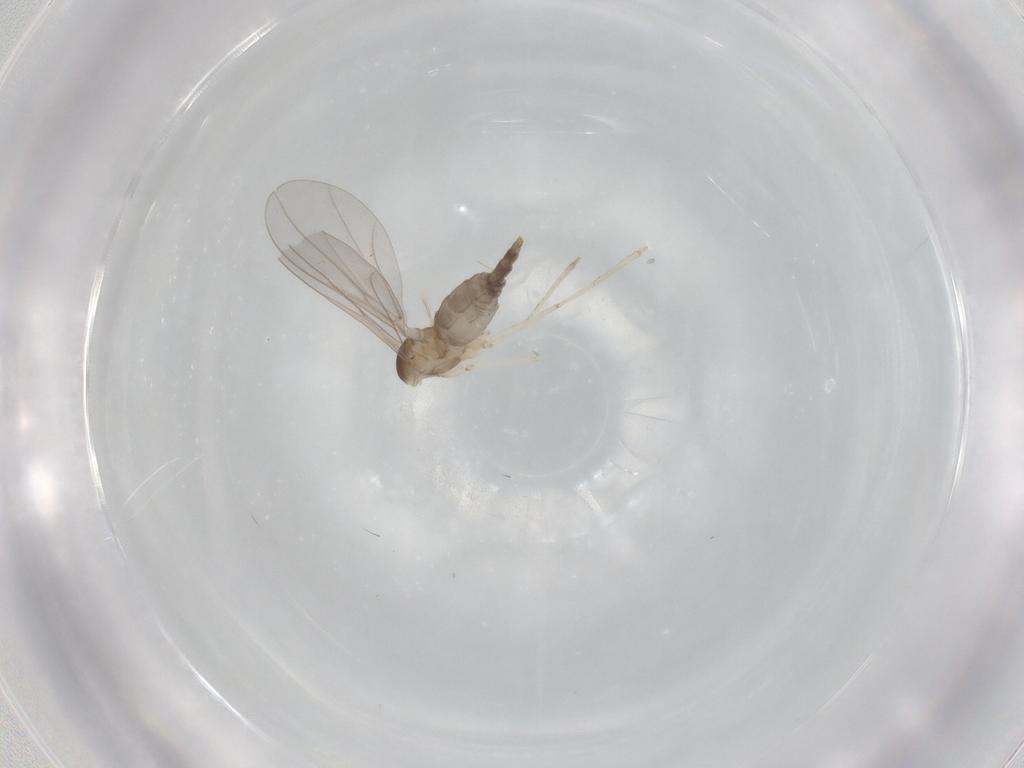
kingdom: Animalia
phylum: Arthropoda
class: Insecta
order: Diptera
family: Cecidomyiidae
